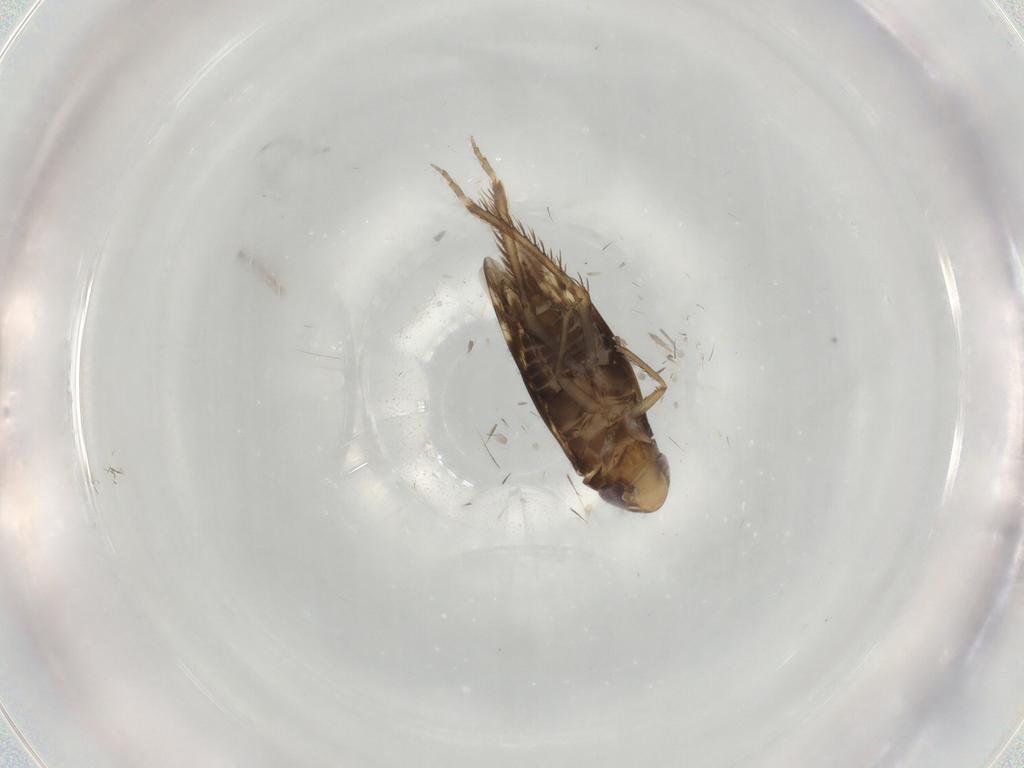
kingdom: Animalia
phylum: Arthropoda
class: Insecta
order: Hemiptera
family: Cicadellidae
